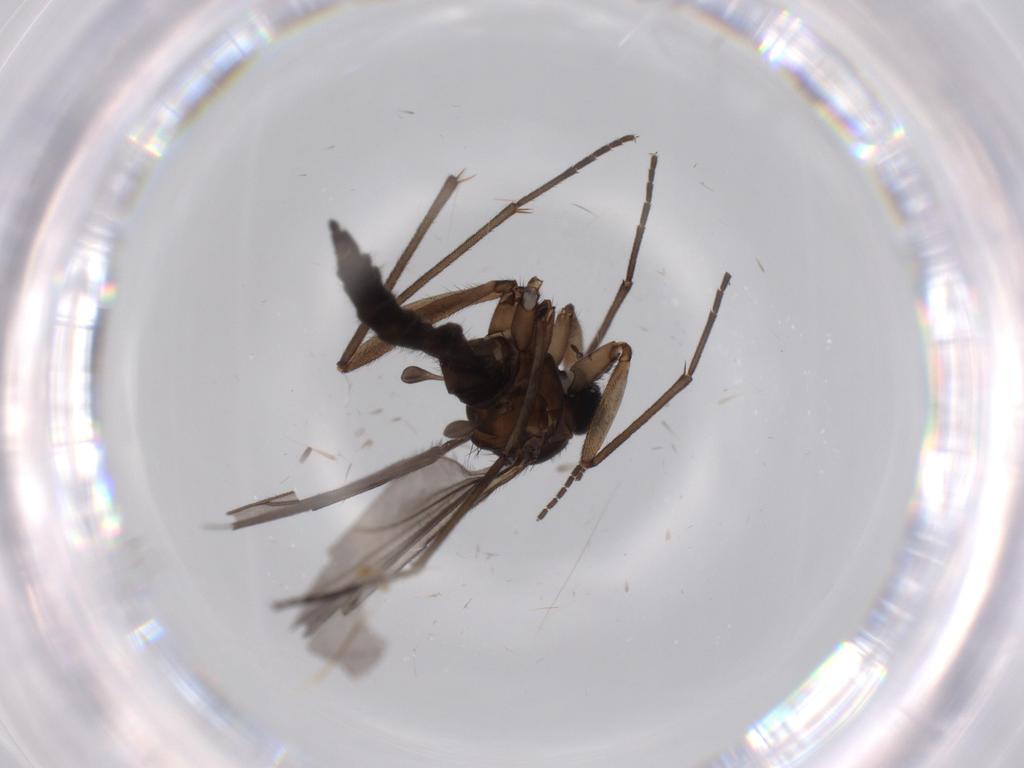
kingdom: Animalia
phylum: Arthropoda
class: Insecta
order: Diptera
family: Sciaridae
